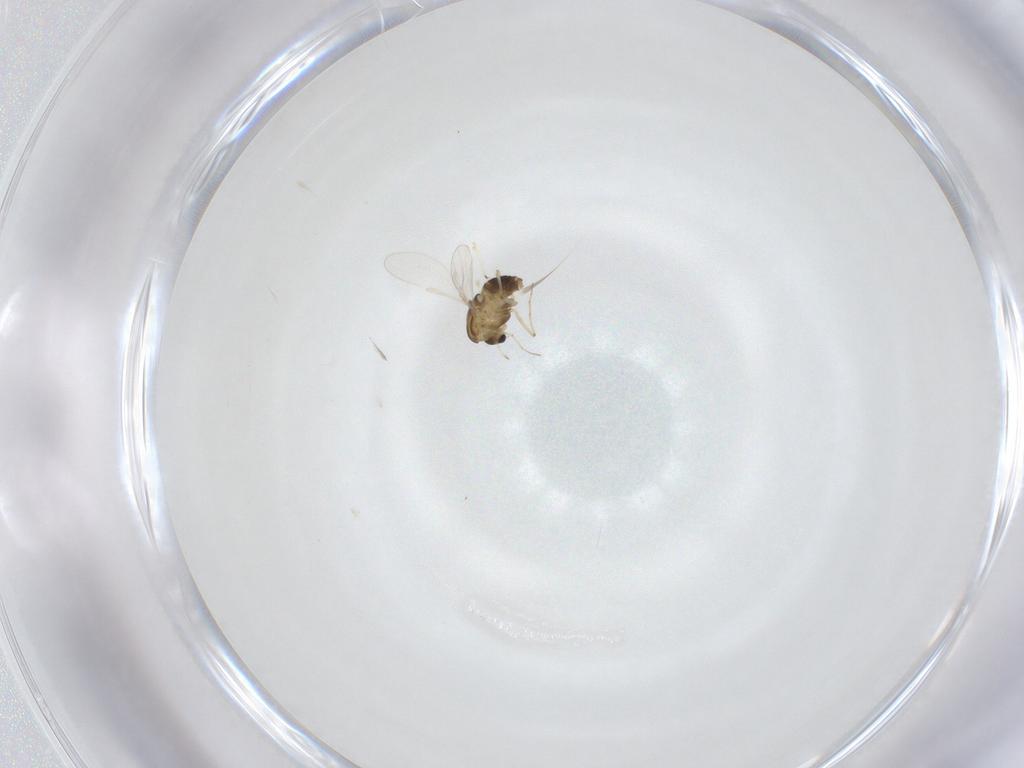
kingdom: Animalia
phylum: Arthropoda
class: Insecta
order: Diptera
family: Chironomidae
